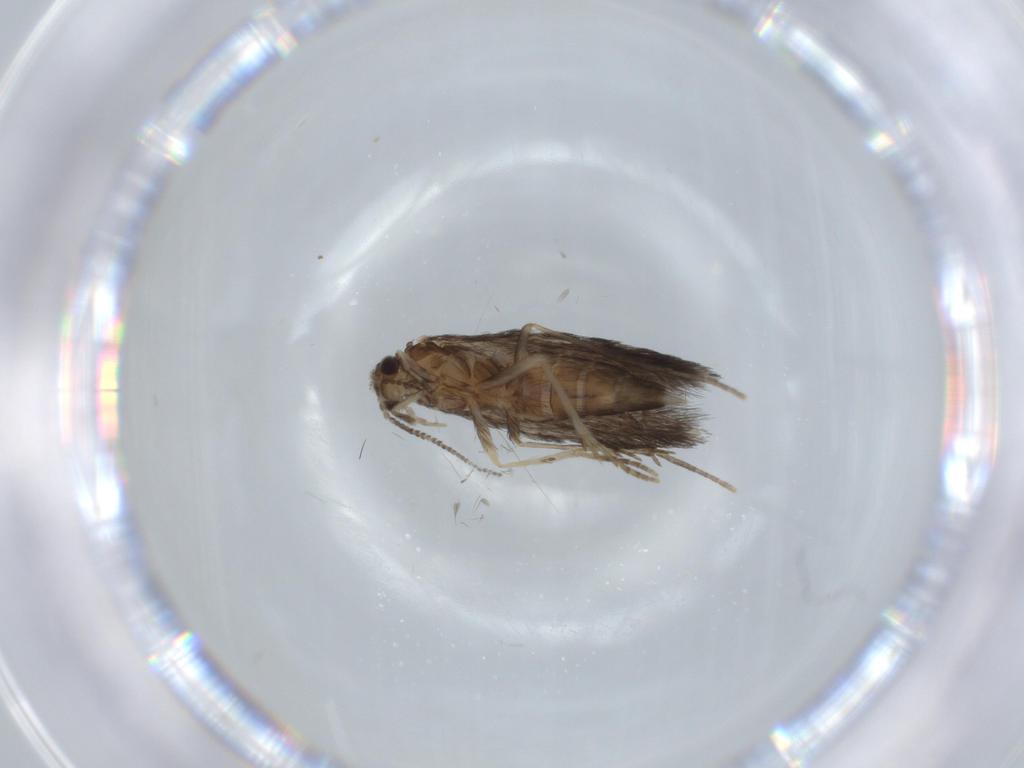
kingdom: Animalia
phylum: Arthropoda
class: Insecta
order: Trichoptera
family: Hydroptilidae
